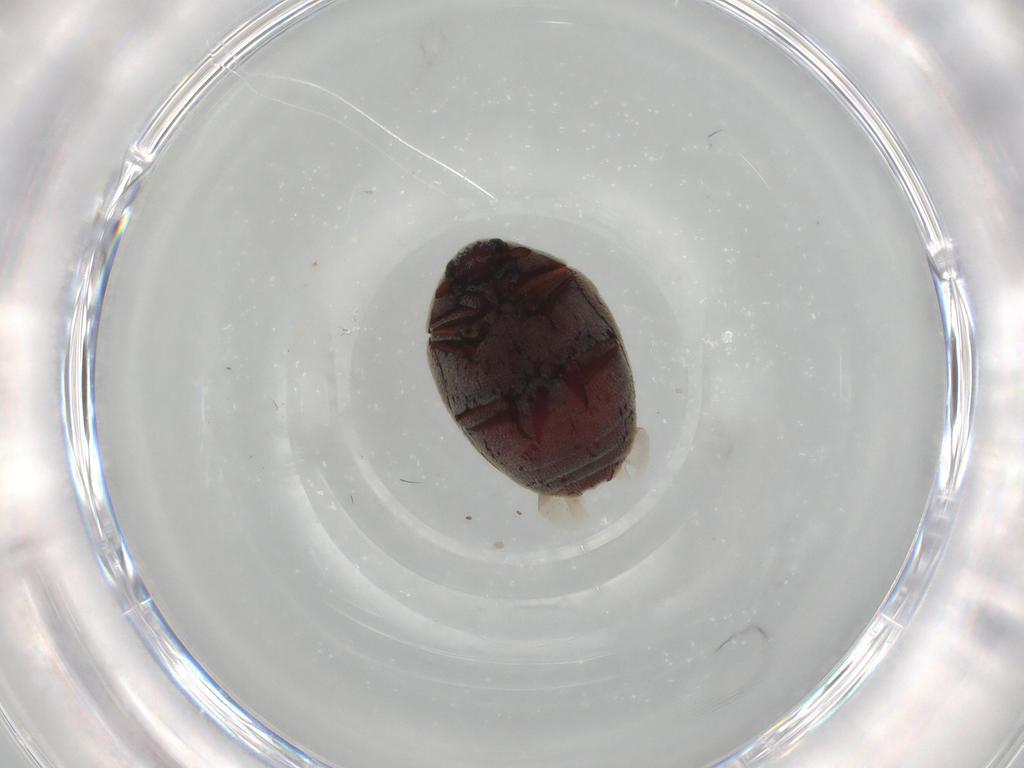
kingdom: Animalia
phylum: Arthropoda
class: Insecta
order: Coleoptera
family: Dermestidae
